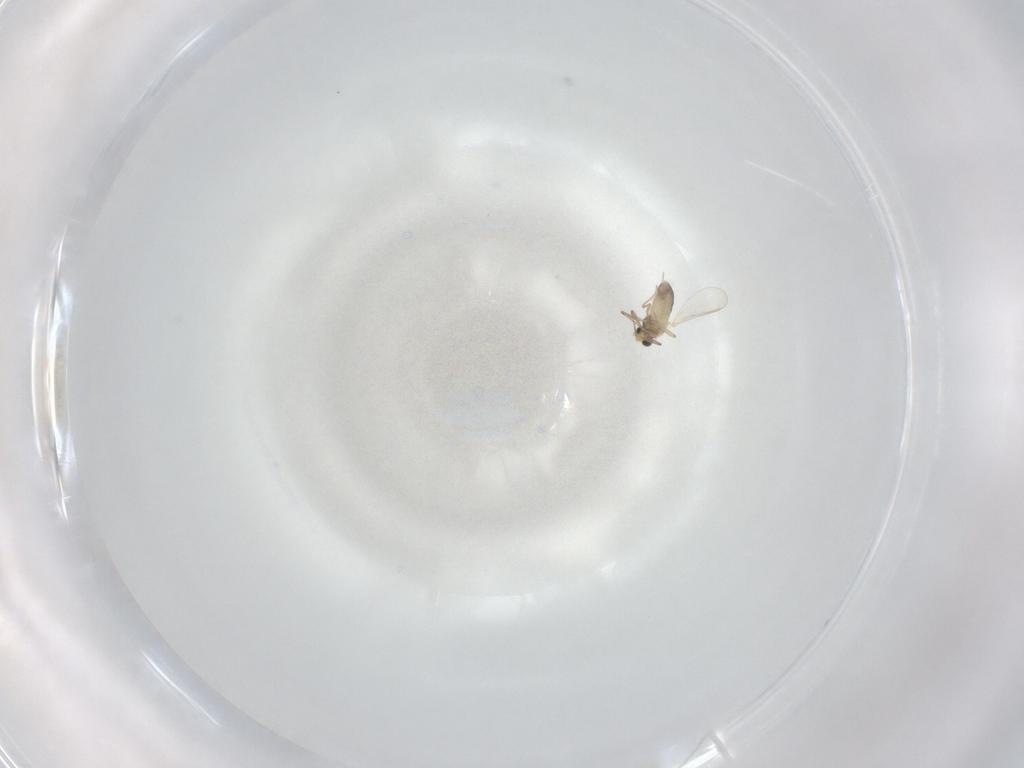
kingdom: Animalia
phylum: Arthropoda
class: Insecta
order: Diptera
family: Chironomidae
